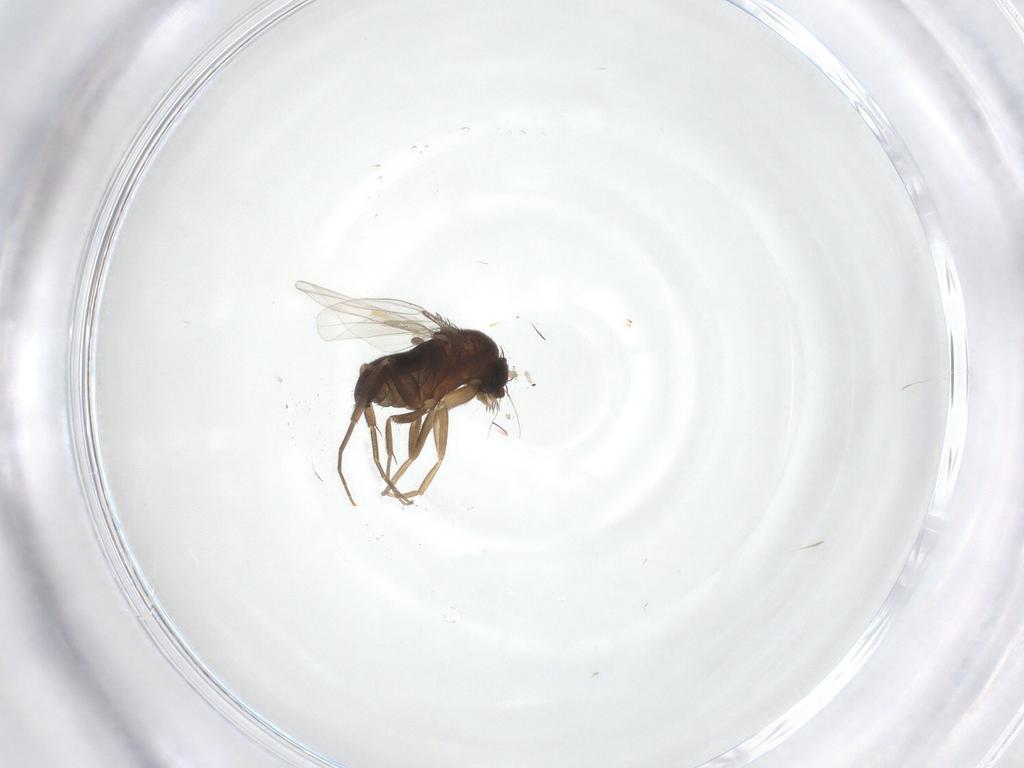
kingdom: Animalia
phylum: Arthropoda
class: Insecta
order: Diptera
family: Phoridae
